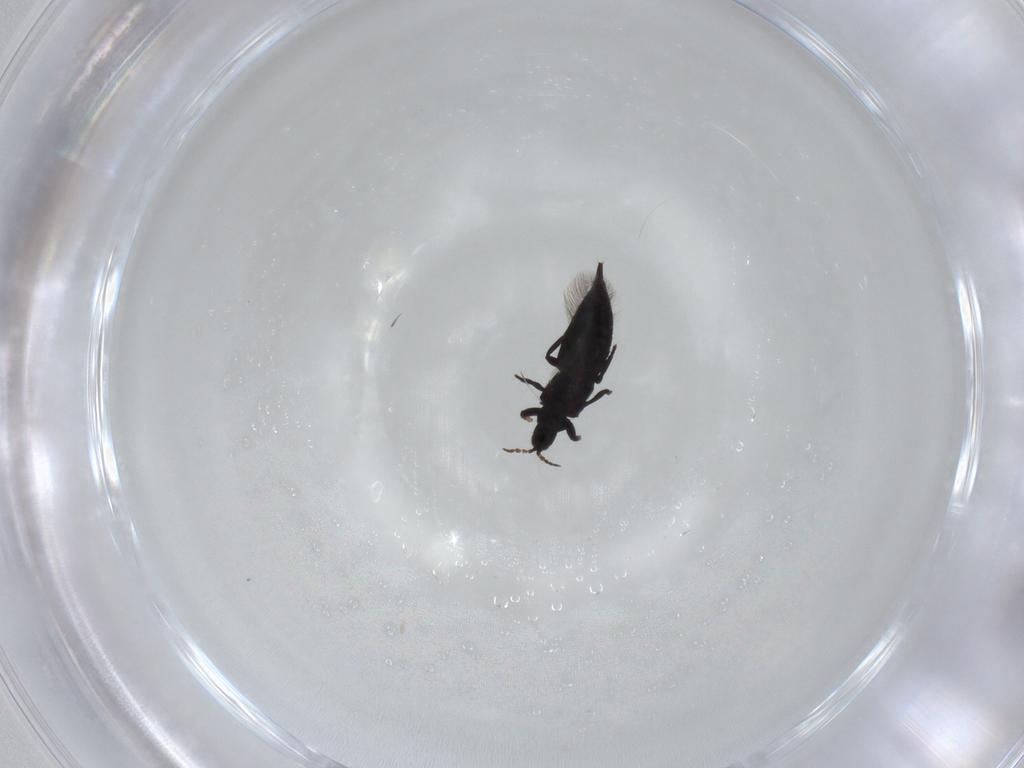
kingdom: Animalia
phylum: Arthropoda
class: Insecta
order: Thysanoptera
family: Phlaeothripidae
